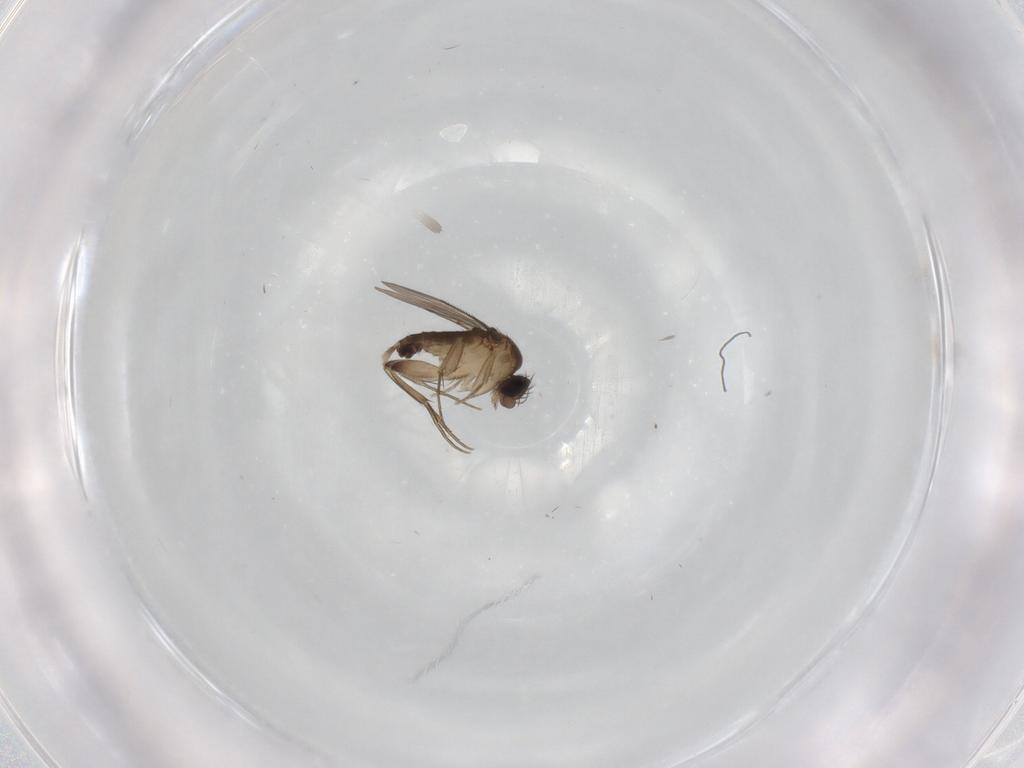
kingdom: Animalia
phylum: Arthropoda
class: Insecta
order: Diptera
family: Phoridae
